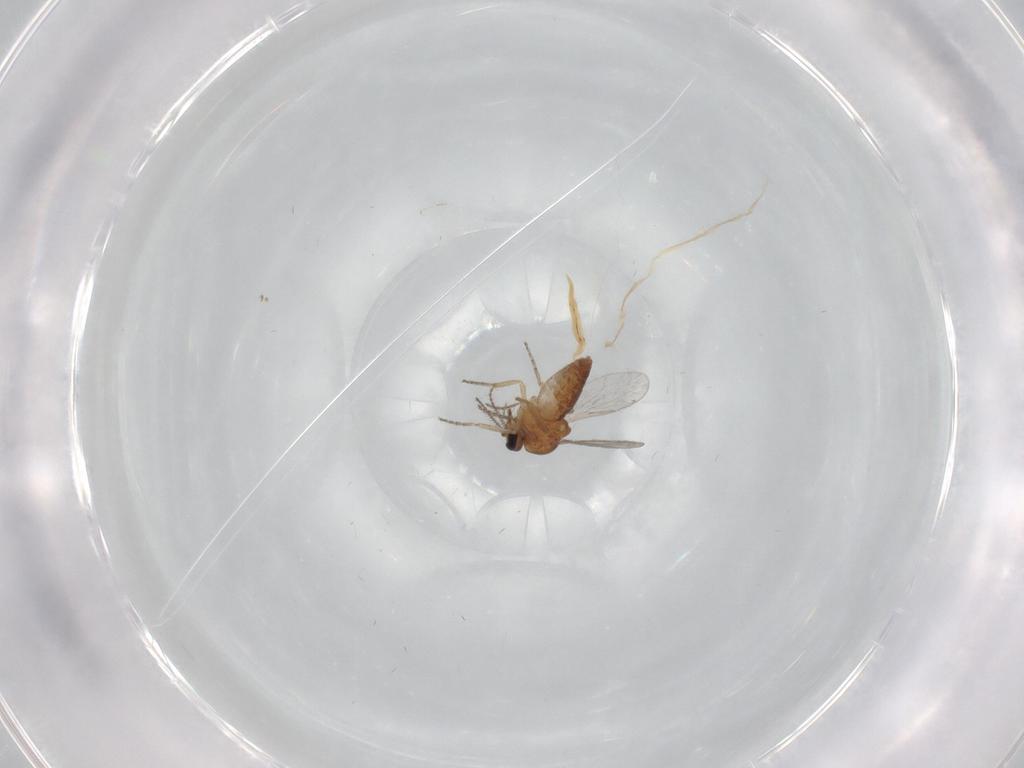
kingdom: Animalia
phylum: Arthropoda
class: Insecta
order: Diptera
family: Ceratopogonidae
